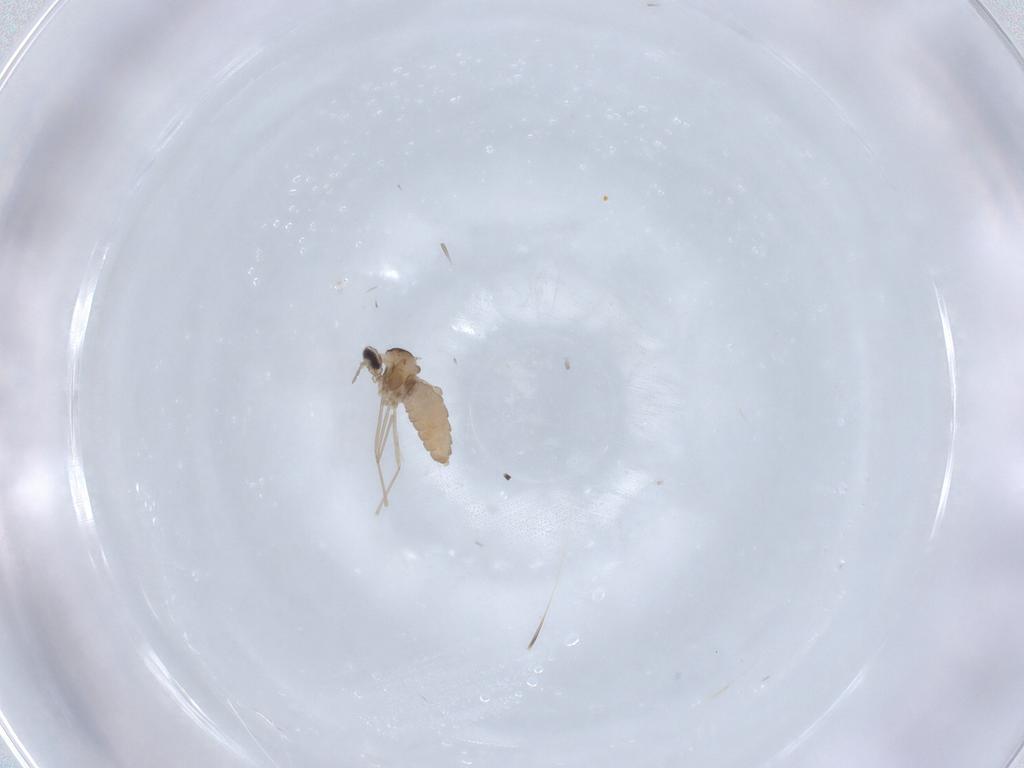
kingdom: Animalia
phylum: Arthropoda
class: Insecta
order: Diptera
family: Cecidomyiidae
